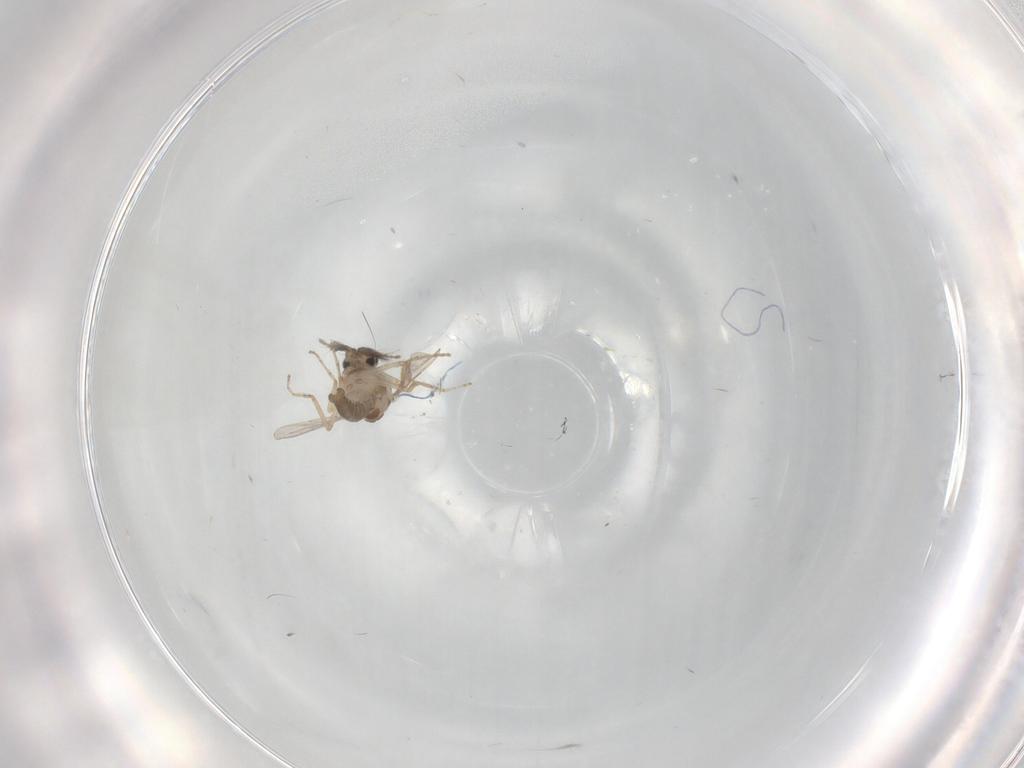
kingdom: Animalia
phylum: Arthropoda
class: Insecta
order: Diptera
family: Ceratopogonidae
